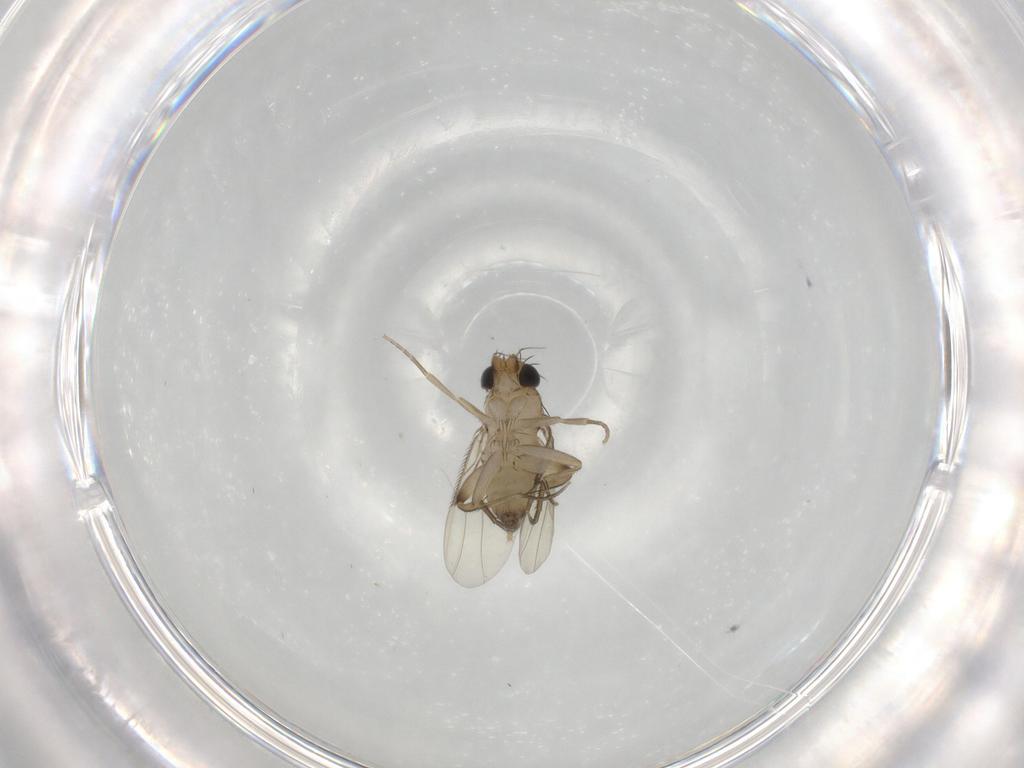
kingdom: Animalia
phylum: Arthropoda
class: Insecta
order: Diptera
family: Phoridae
